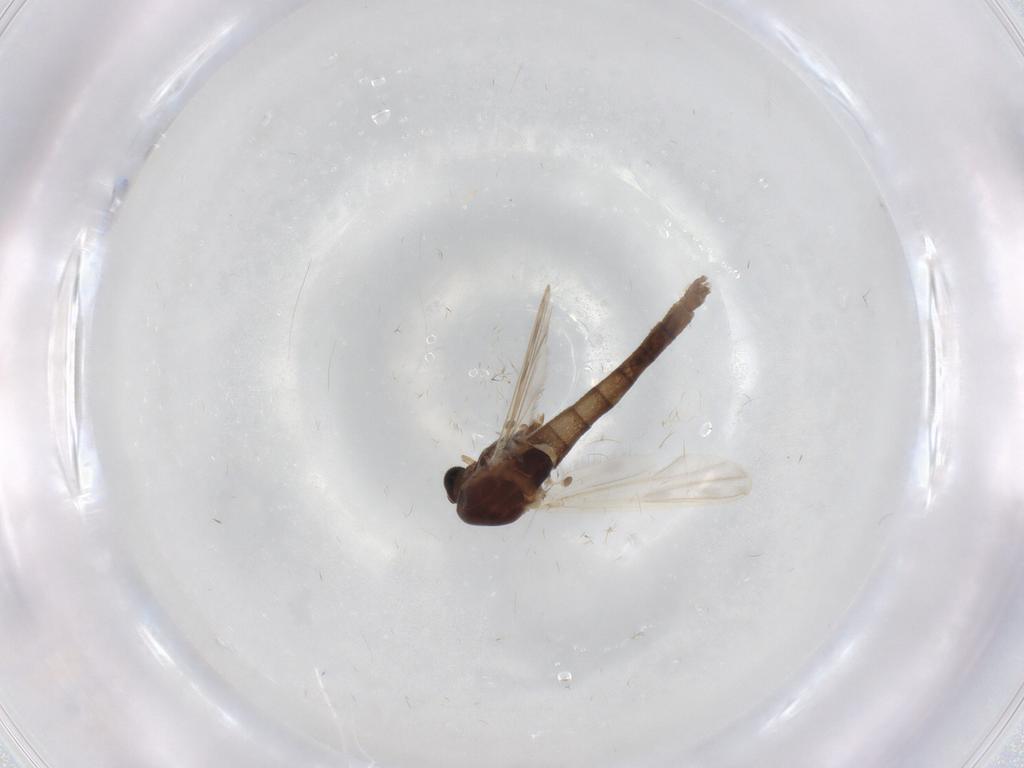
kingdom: Animalia
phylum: Arthropoda
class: Insecta
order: Diptera
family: Chironomidae
